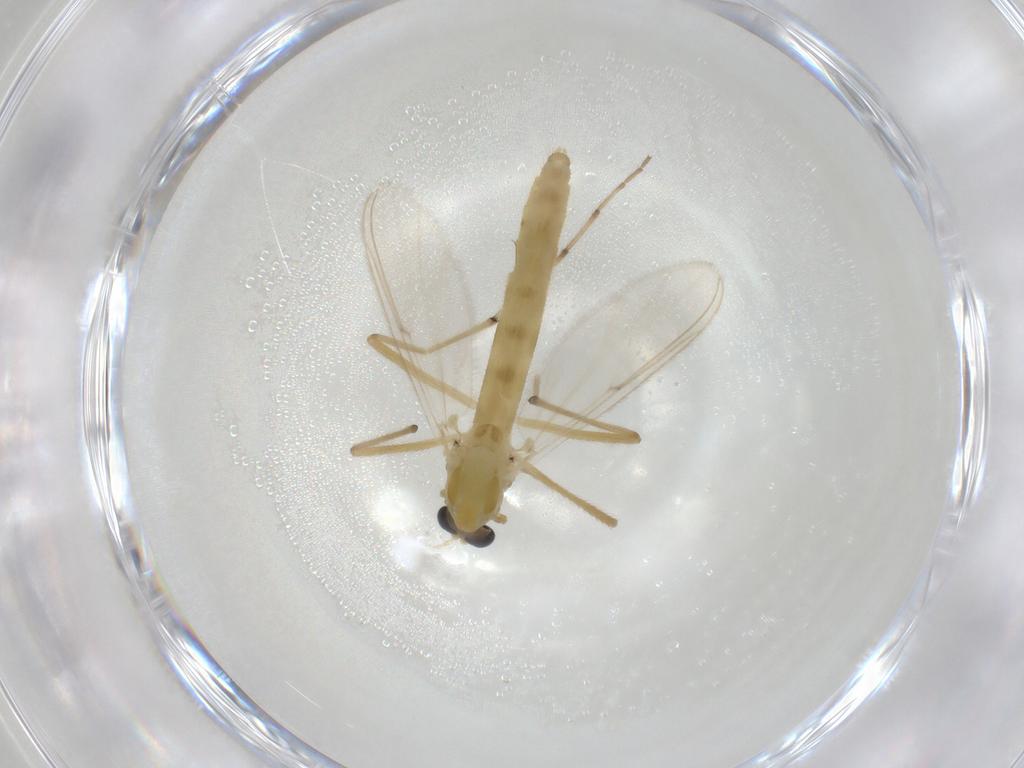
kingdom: Animalia
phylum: Arthropoda
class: Insecta
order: Diptera
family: Chironomidae
